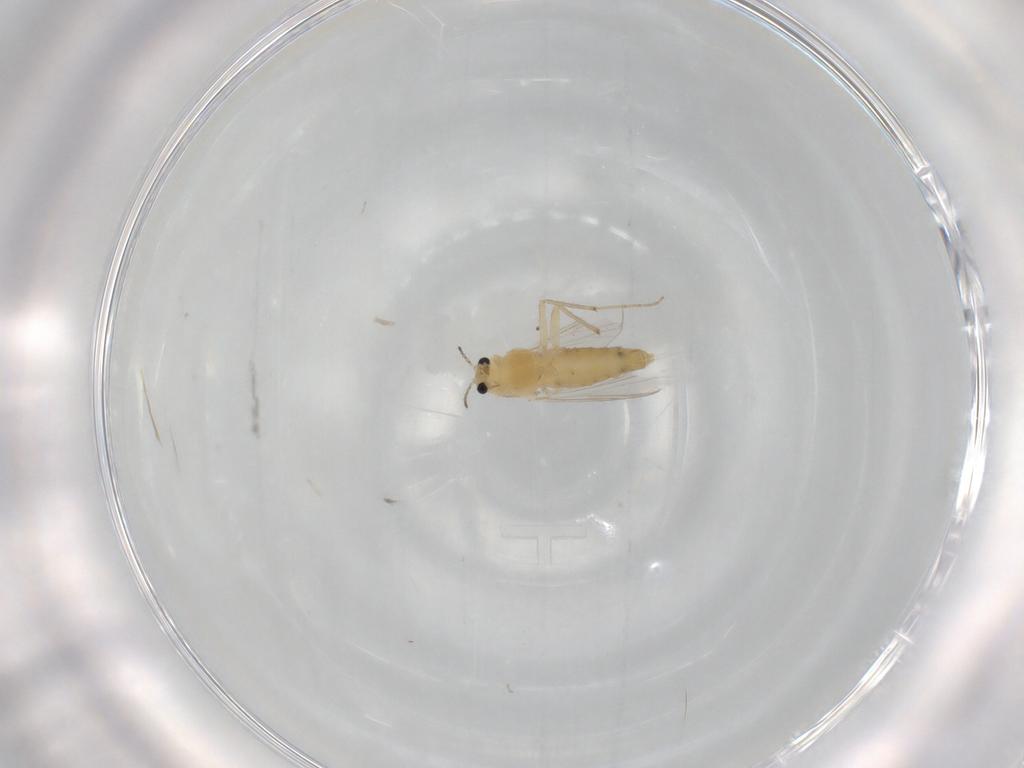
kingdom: Animalia
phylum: Arthropoda
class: Insecta
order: Diptera
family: Chironomidae
